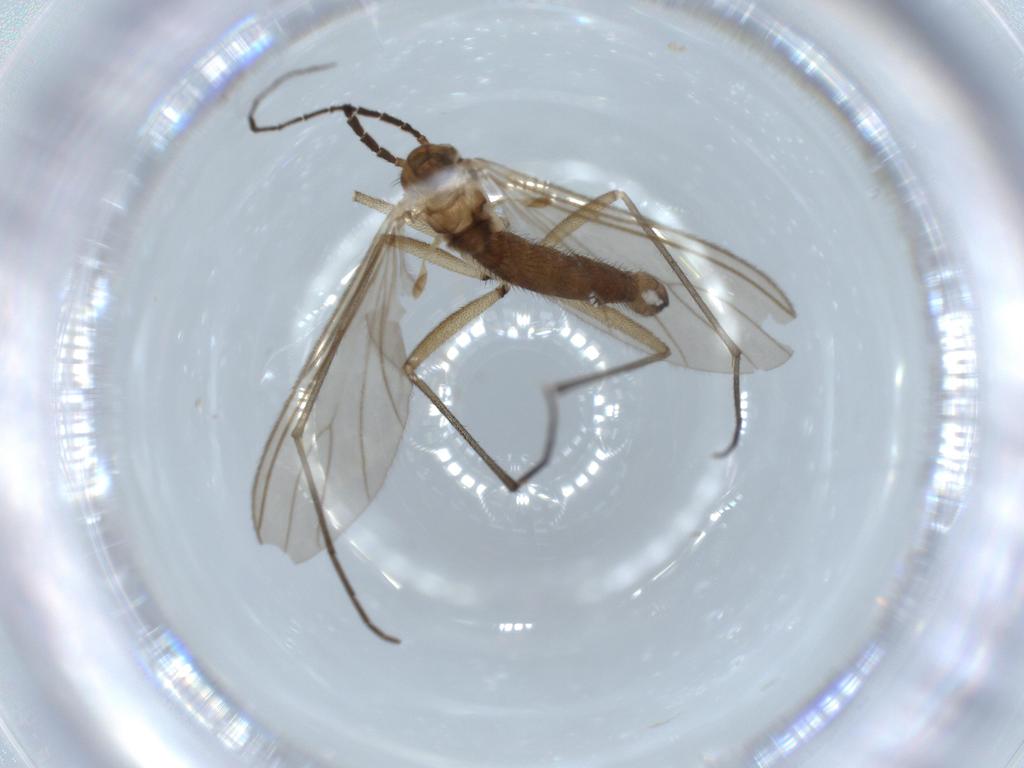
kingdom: Animalia
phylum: Arthropoda
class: Insecta
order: Diptera
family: Sciaridae
